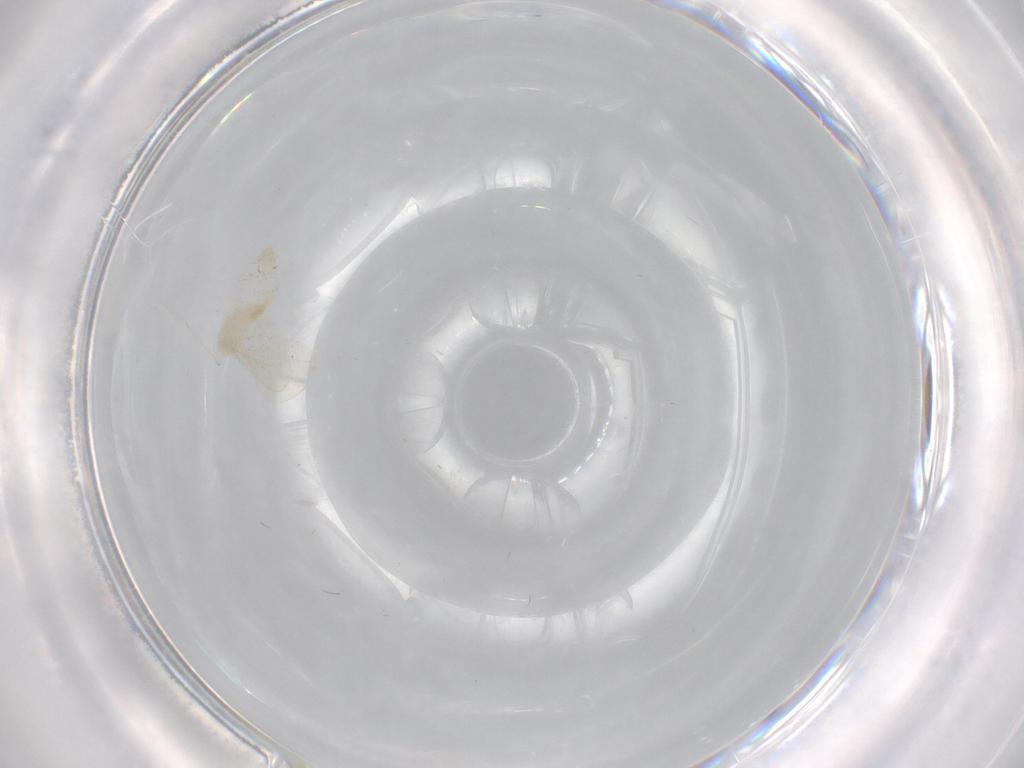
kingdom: Animalia
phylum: Arthropoda
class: Insecta
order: Diptera
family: Cecidomyiidae
